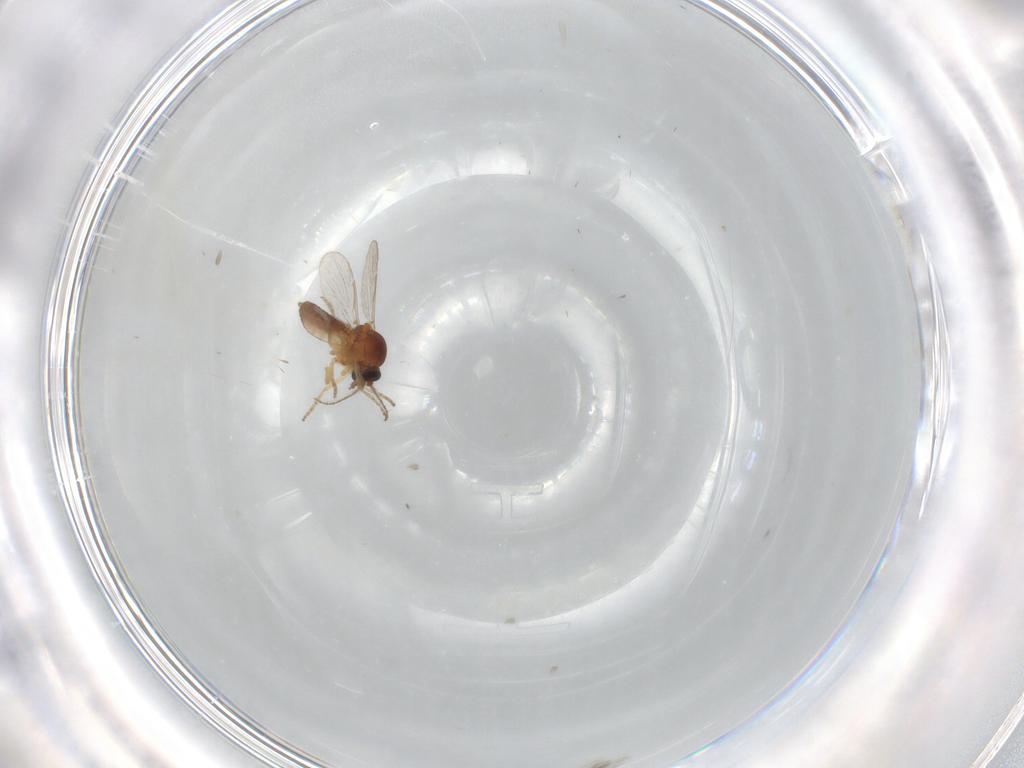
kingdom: Animalia
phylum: Arthropoda
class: Insecta
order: Diptera
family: Ceratopogonidae
